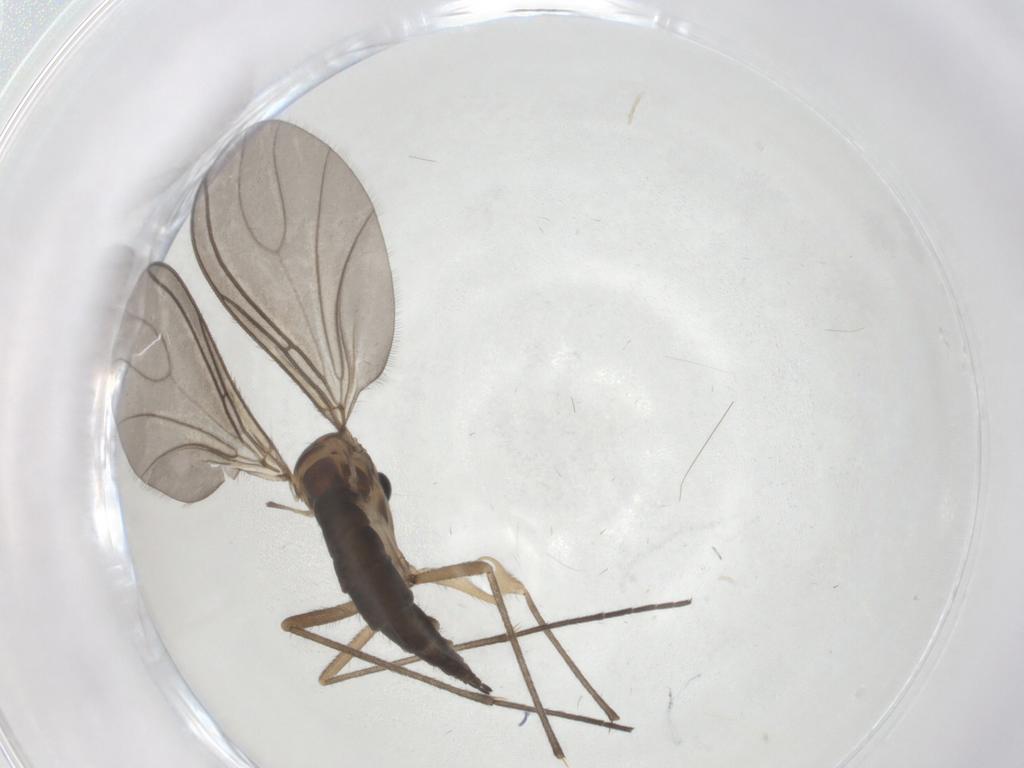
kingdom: Animalia
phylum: Arthropoda
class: Insecta
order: Diptera
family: Sciaridae
